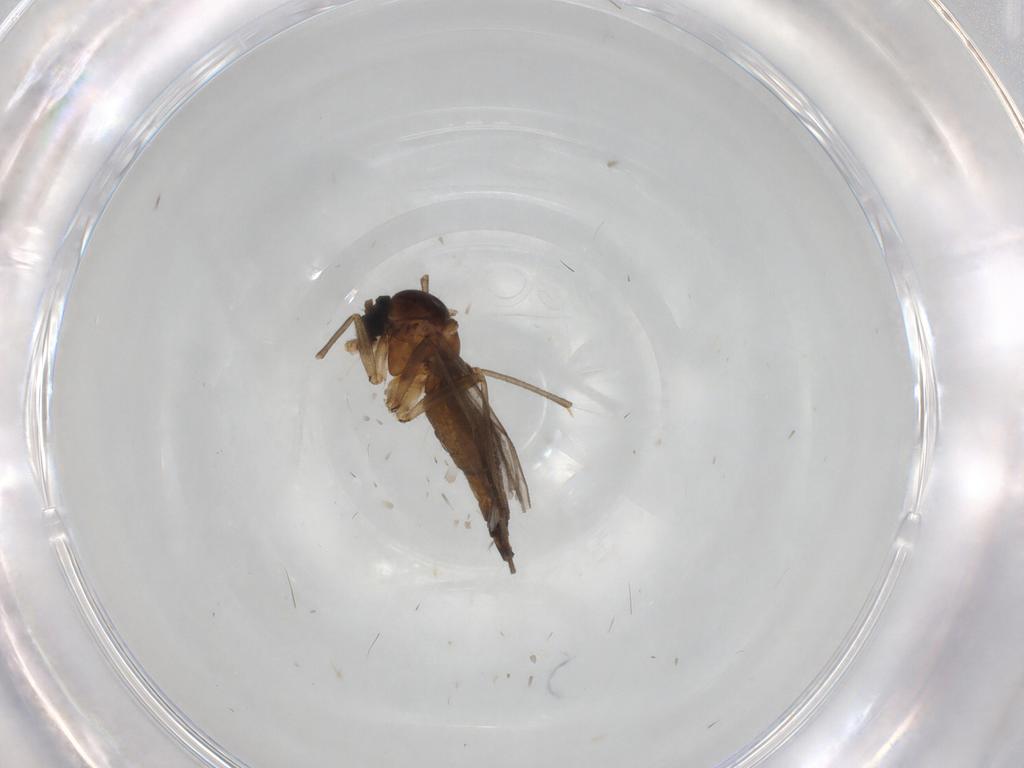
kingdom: Animalia
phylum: Arthropoda
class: Insecta
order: Diptera
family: Sciaridae
